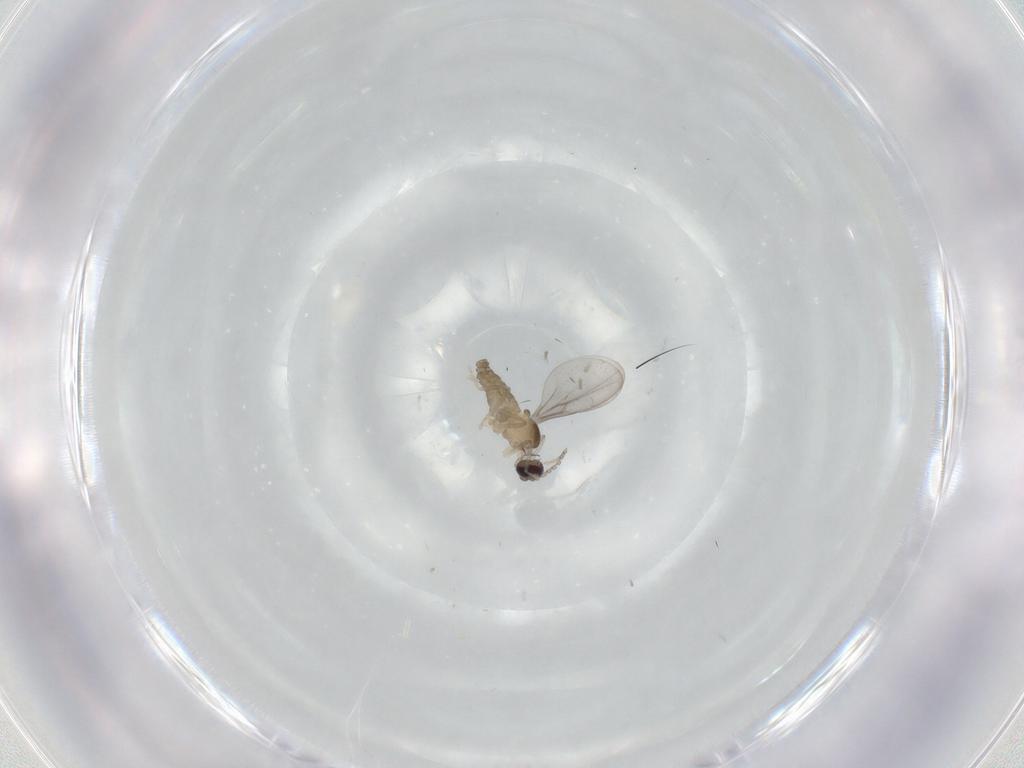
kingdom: Animalia
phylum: Arthropoda
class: Insecta
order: Diptera
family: Cecidomyiidae
